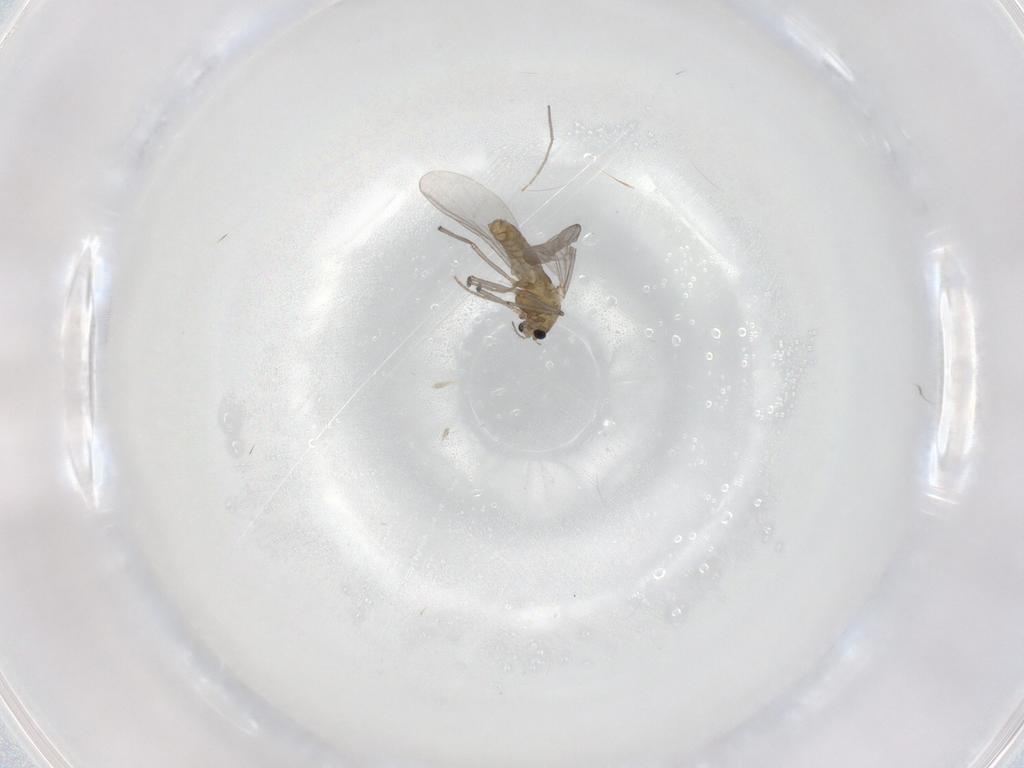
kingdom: Animalia
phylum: Arthropoda
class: Insecta
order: Diptera
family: Chironomidae
